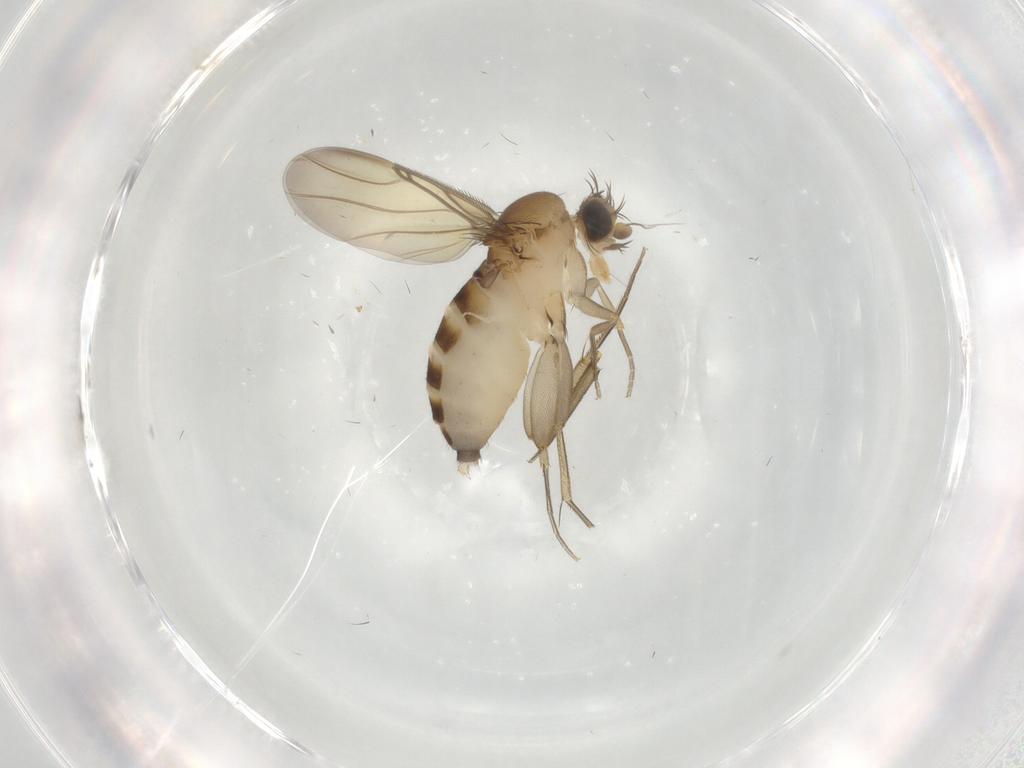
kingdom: Animalia
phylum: Arthropoda
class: Insecta
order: Diptera
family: Phoridae
